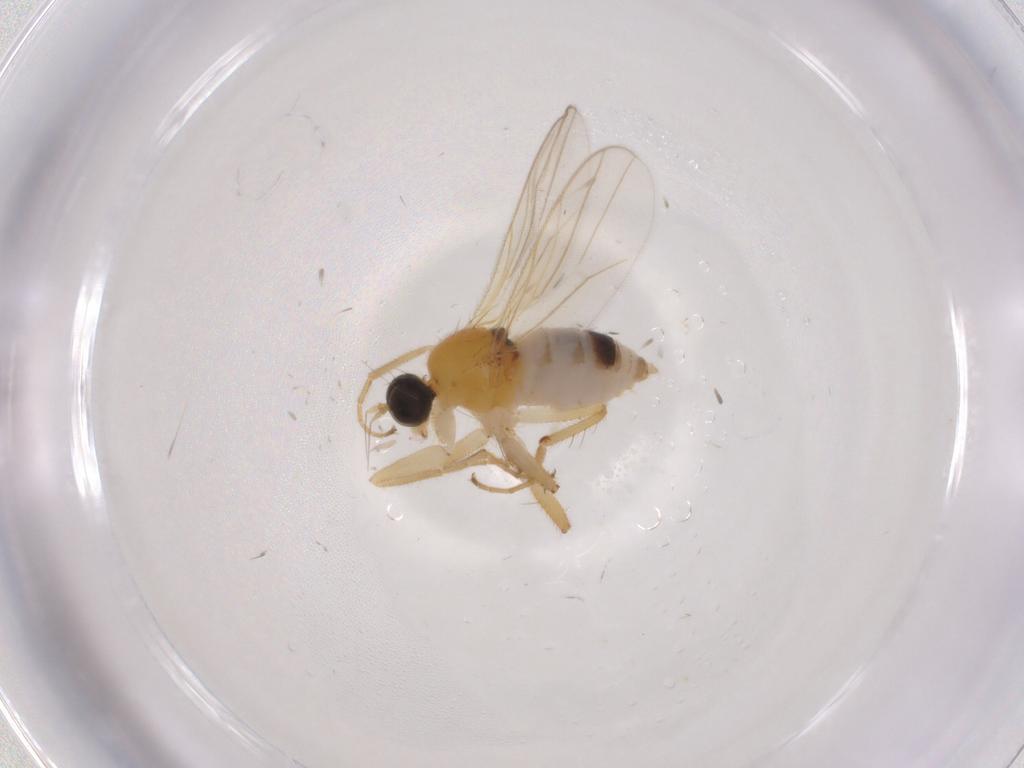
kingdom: Animalia
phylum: Arthropoda
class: Insecta
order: Diptera
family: Hybotidae
